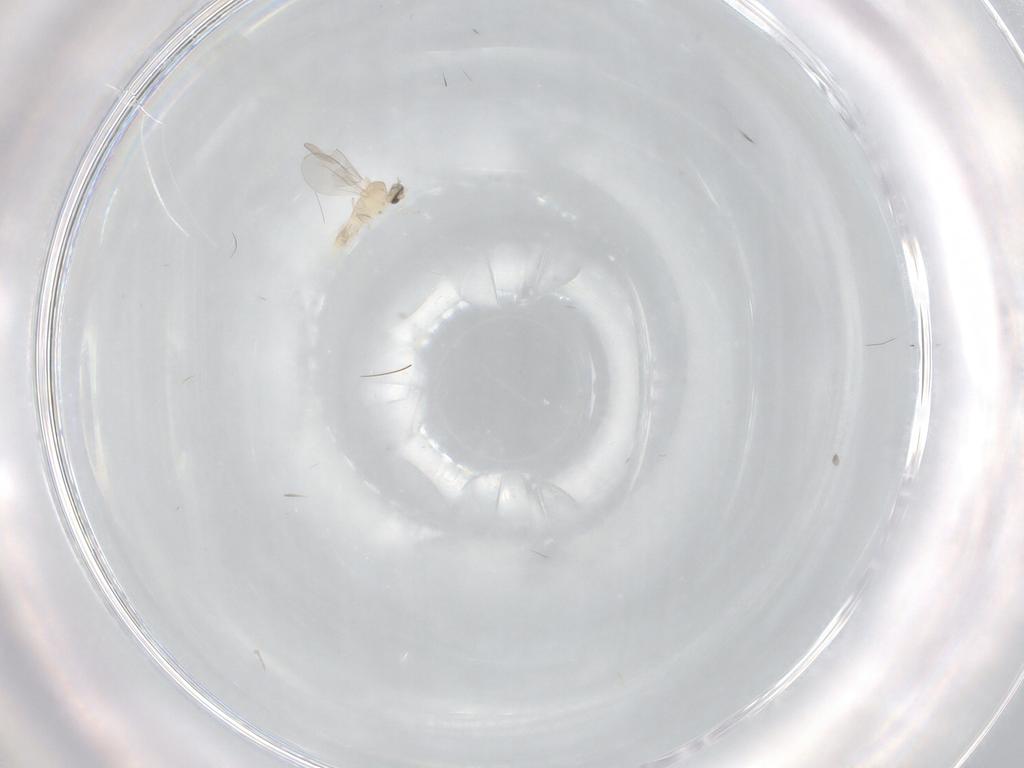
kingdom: Animalia
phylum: Arthropoda
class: Insecta
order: Diptera
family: Cecidomyiidae
